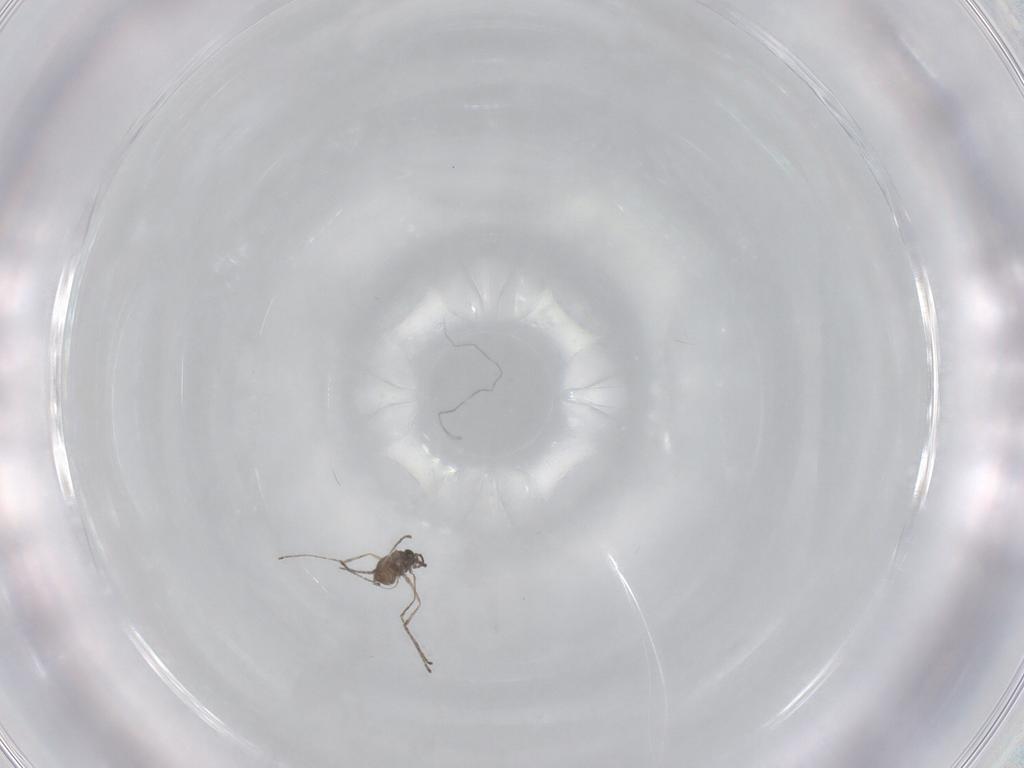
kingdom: Animalia
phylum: Arthropoda
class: Insecta
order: Diptera
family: Cecidomyiidae
